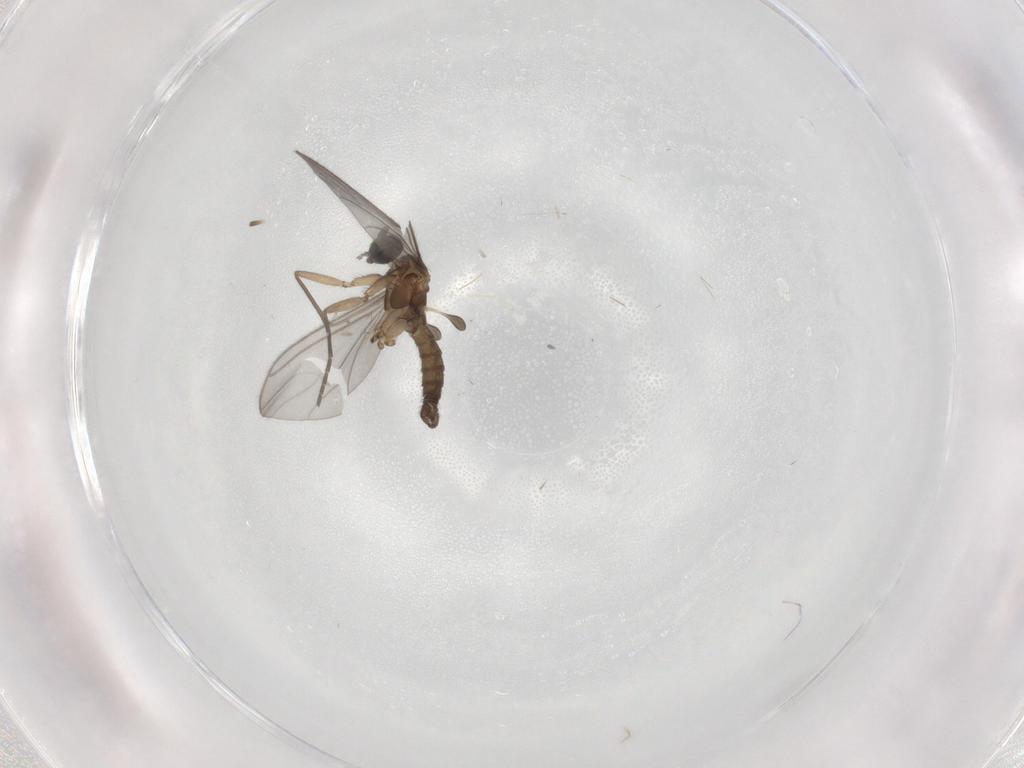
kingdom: Animalia
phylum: Arthropoda
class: Insecta
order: Diptera
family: Sciaridae
